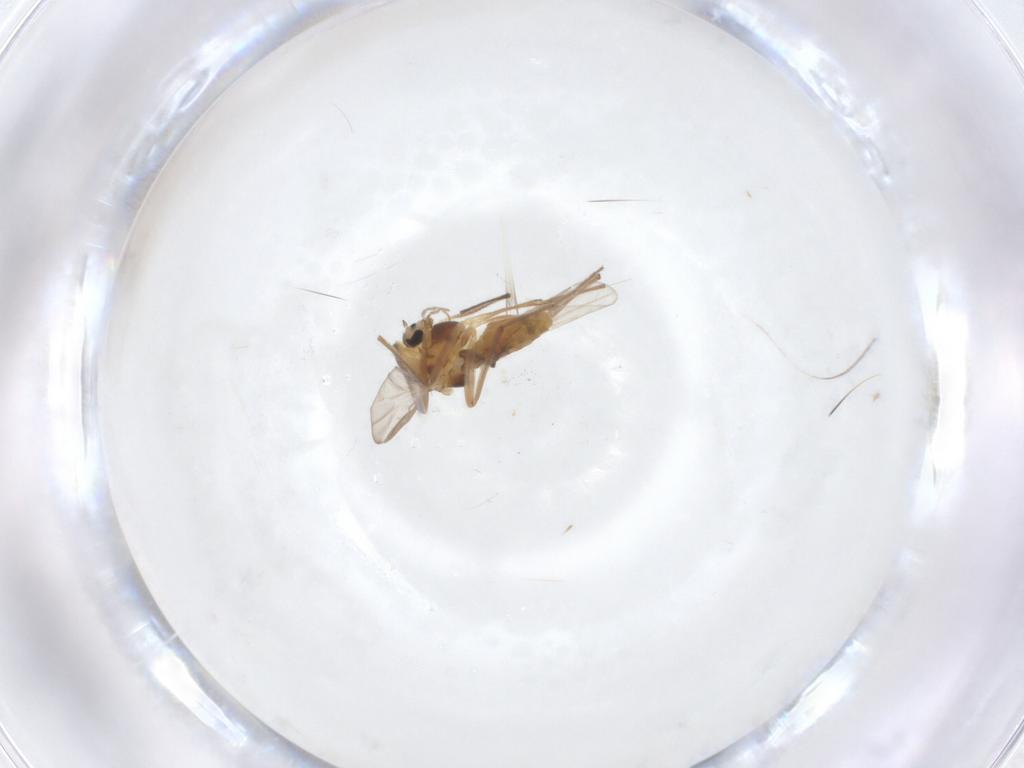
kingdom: Animalia
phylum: Arthropoda
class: Insecta
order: Diptera
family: Chironomidae
